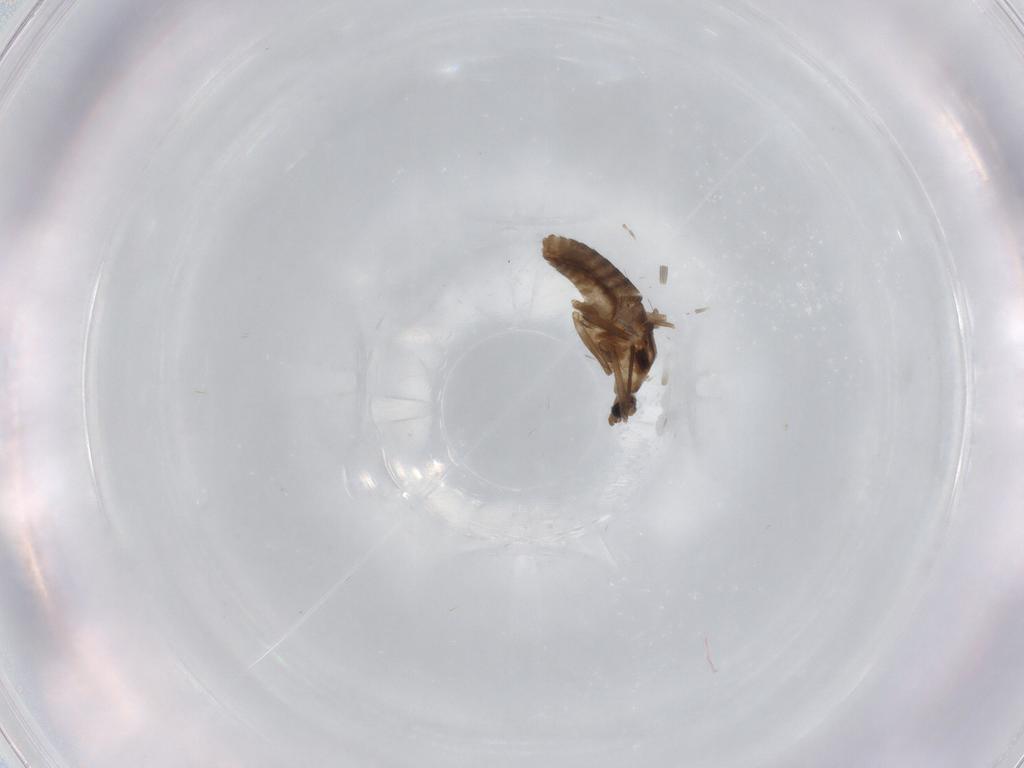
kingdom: Animalia
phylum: Arthropoda
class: Insecta
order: Diptera
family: Chironomidae
